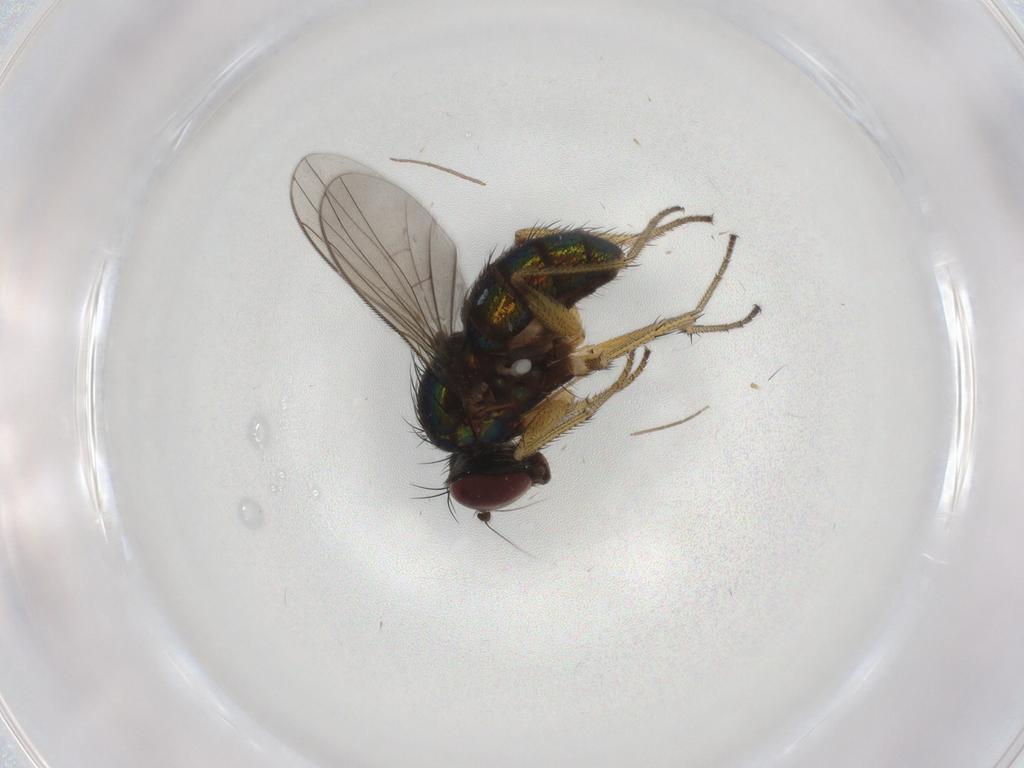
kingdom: Animalia
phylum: Arthropoda
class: Insecta
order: Diptera
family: Dolichopodidae
